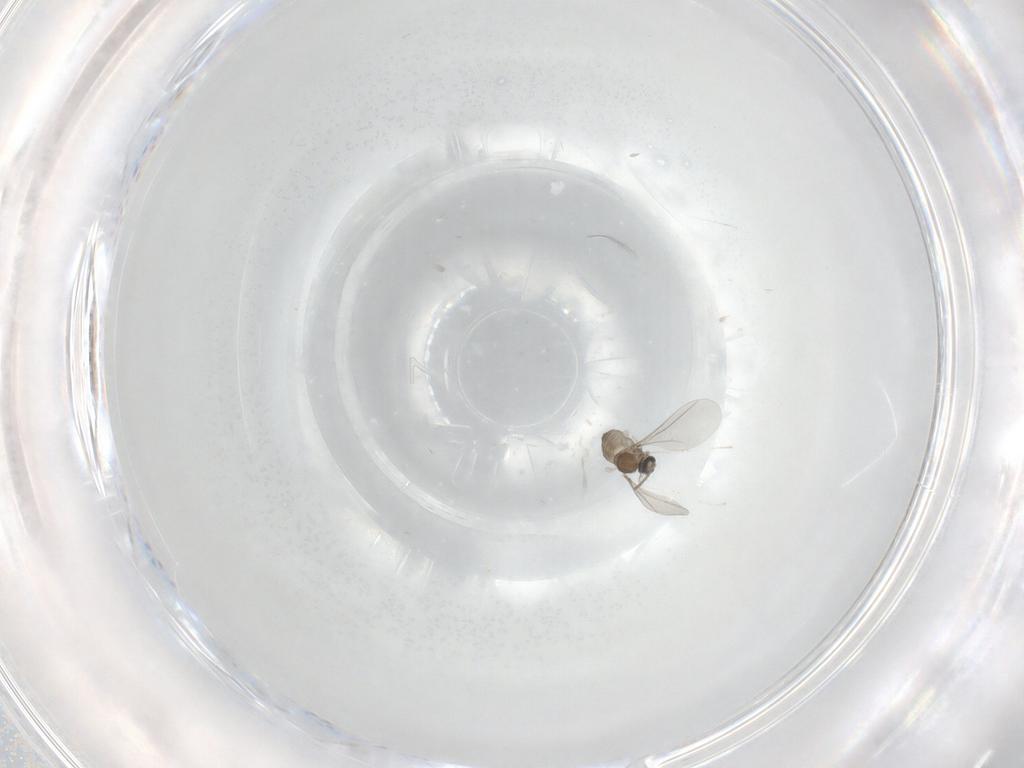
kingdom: Animalia
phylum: Arthropoda
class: Insecta
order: Diptera
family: Cecidomyiidae
